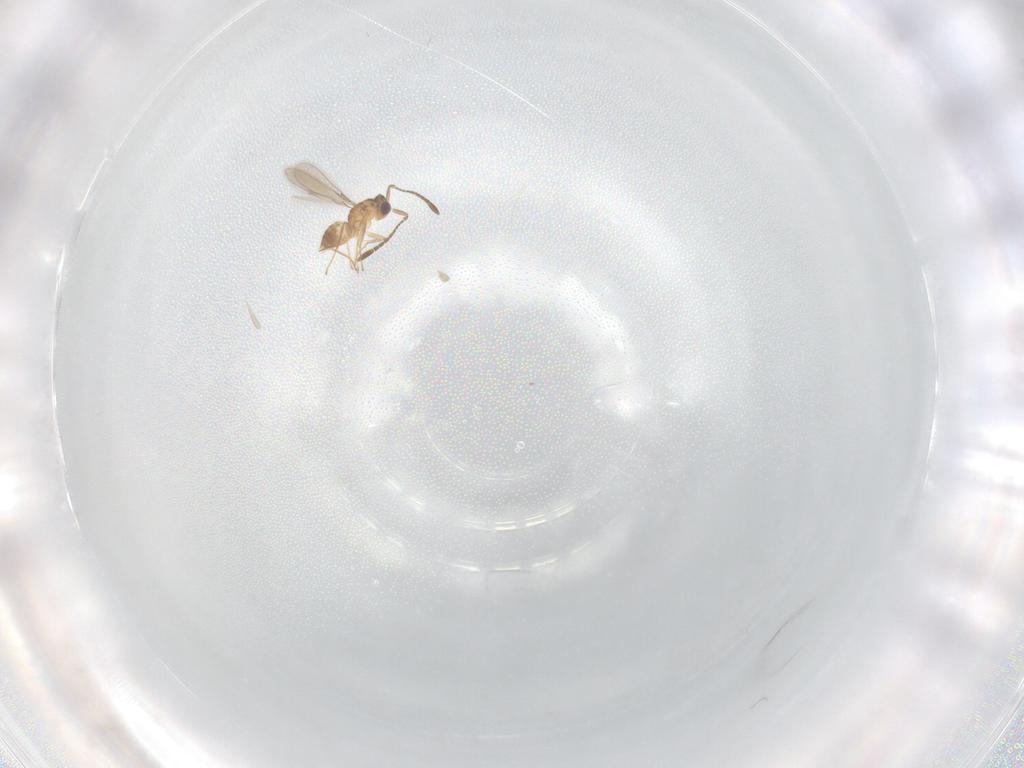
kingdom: Animalia
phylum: Arthropoda
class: Insecta
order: Hymenoptera
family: Mymaridae
